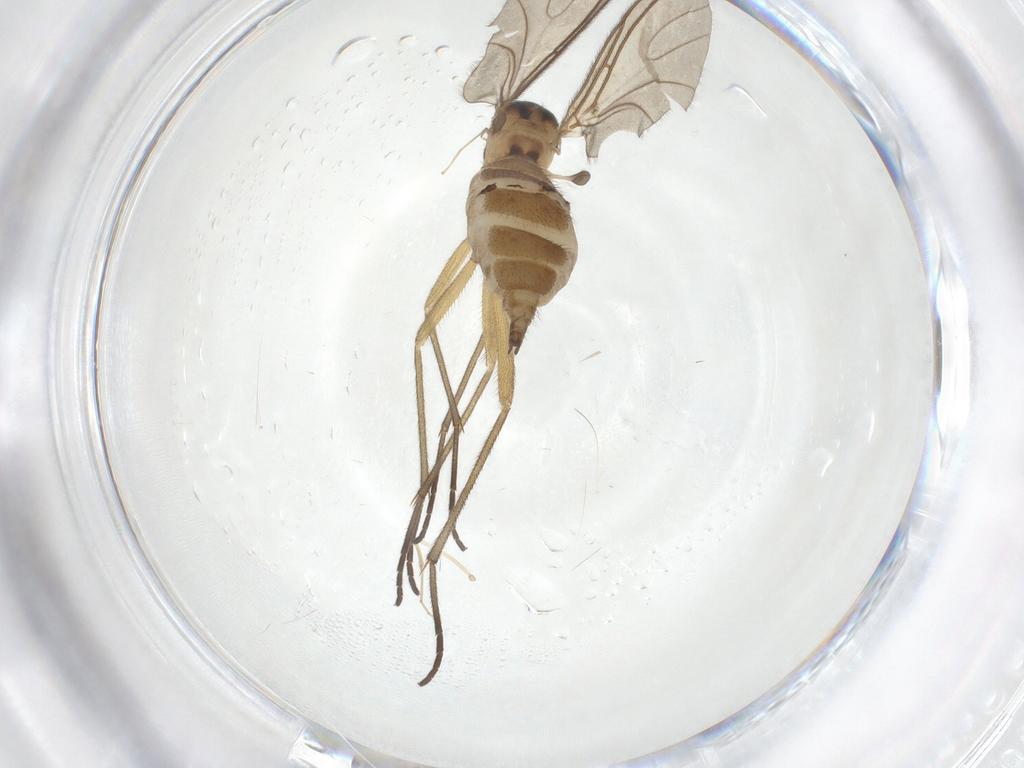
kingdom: Animalia
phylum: Arthropoda
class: Insecta
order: Diptera
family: Sciaridae
